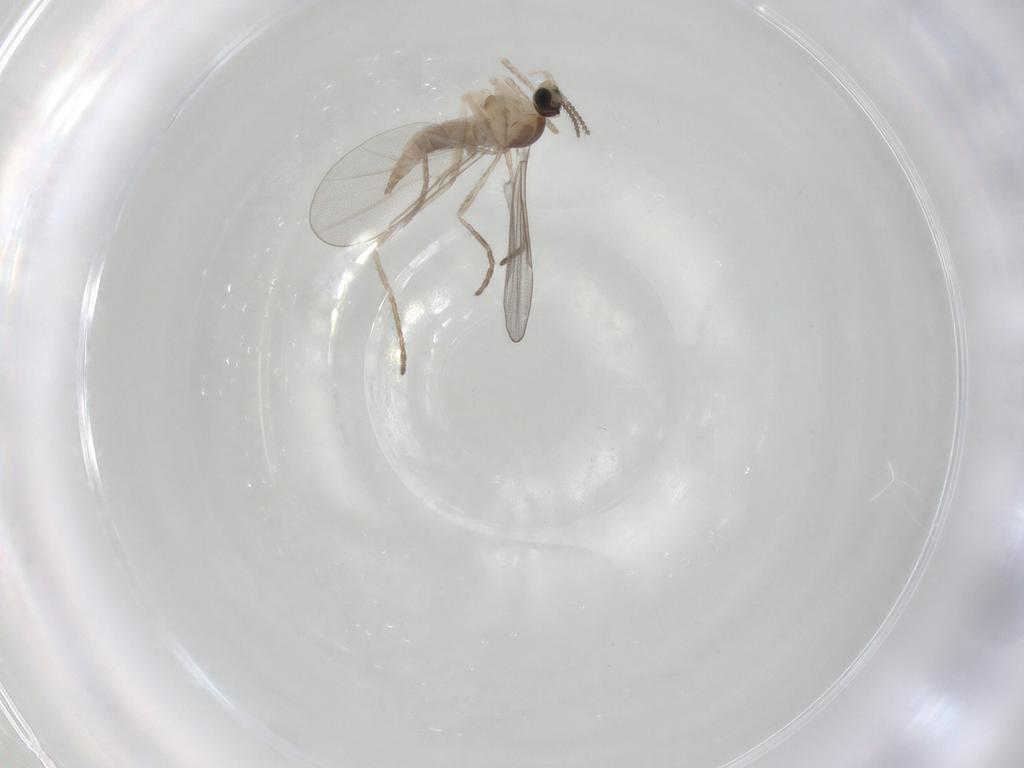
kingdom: Animalia
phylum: Arthropoda
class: Insecta
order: Diptera
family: Cecidomyiidae
